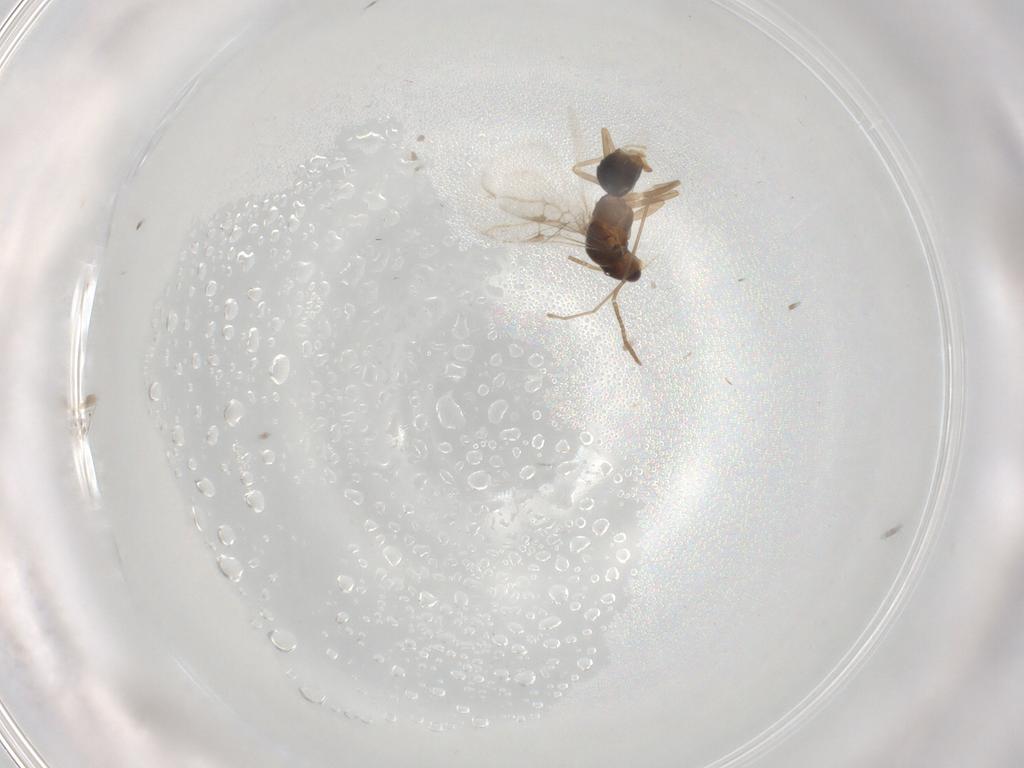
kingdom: Animalia
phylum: Arthropoda
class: Insecta
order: Hymenoptera
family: Formicidae
